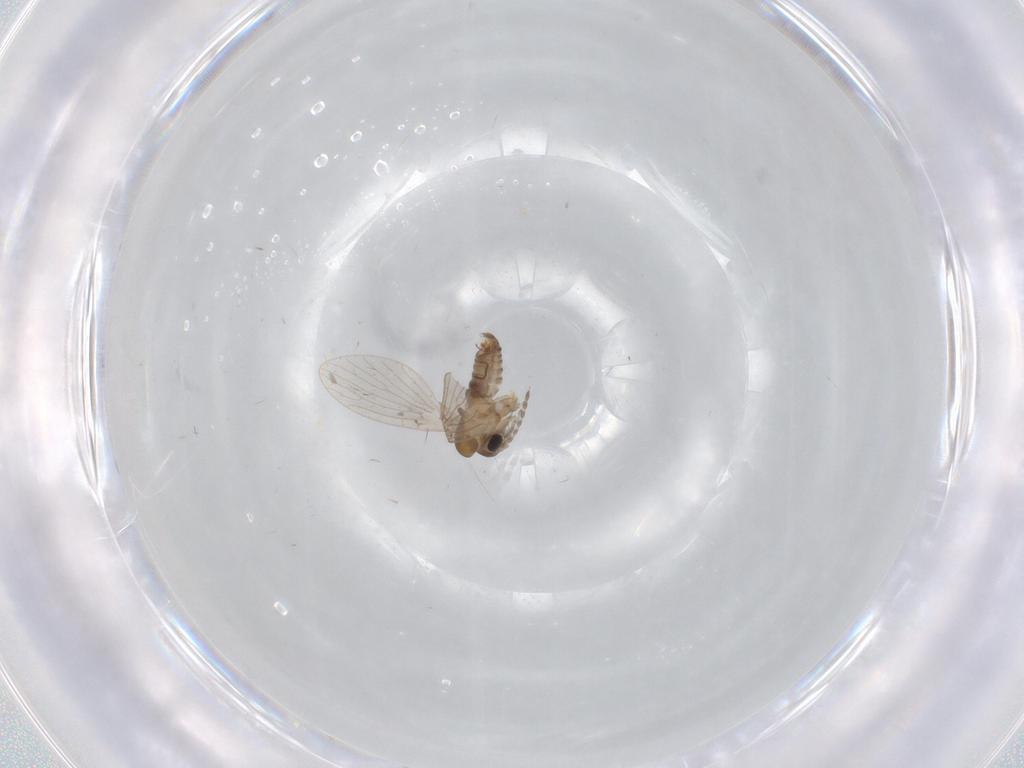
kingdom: Animalia
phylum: Arthropoda
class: Insecta
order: Diptera
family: Psychodidae
